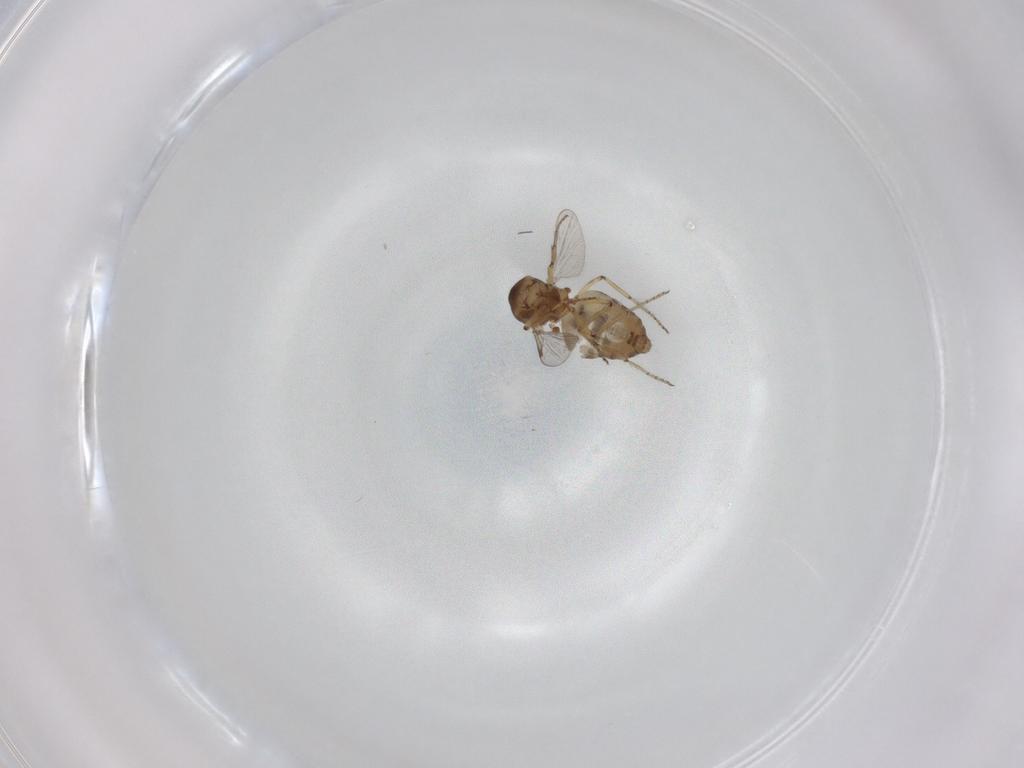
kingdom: Animalia
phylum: Arthropoda
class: Insecta
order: Diptera
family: Ceratopogonidae
